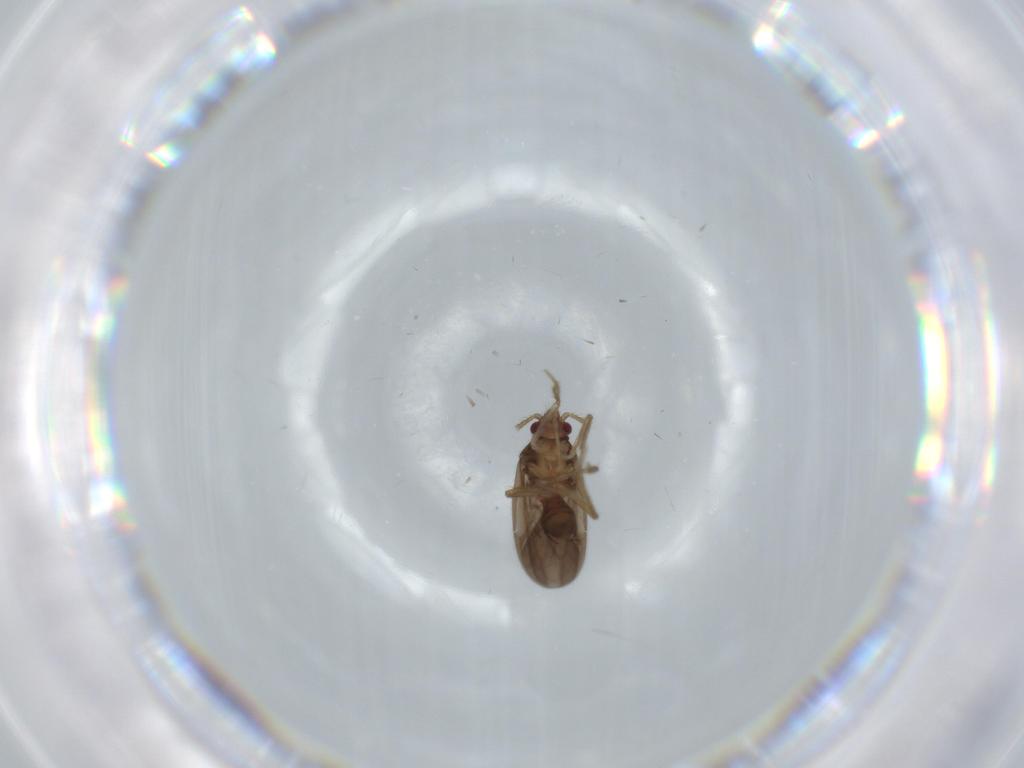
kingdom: Animalia
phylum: Arthropoda
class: Insecta
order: Hemiptera
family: Ceratocombidae
